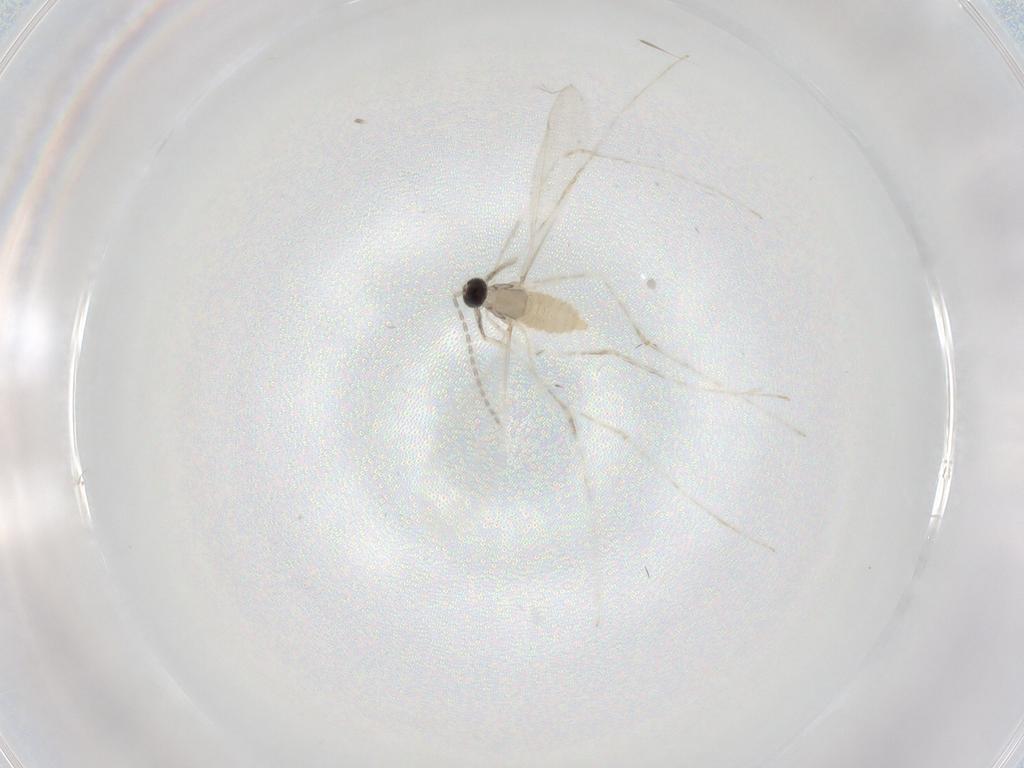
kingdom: Animalia
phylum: Arthropoda
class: Insecta
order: Diptera
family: Cecidomyiidae
